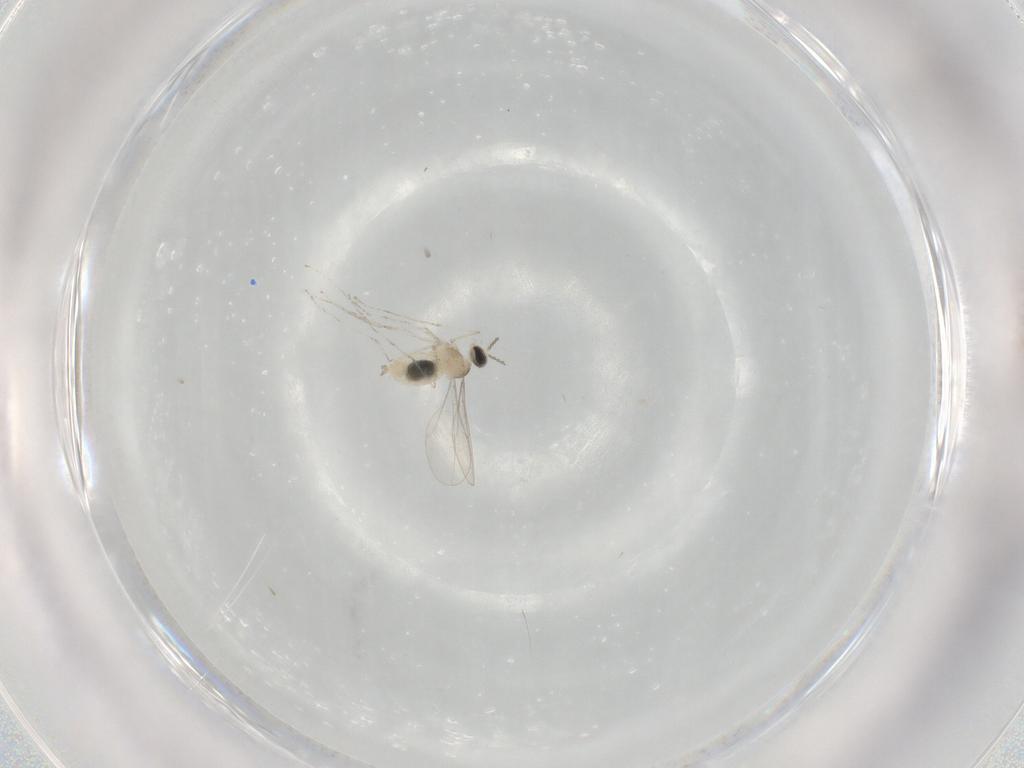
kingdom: Animalia
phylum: Arthropoda
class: Insecta
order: Diptera
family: Cecidomyiidae
